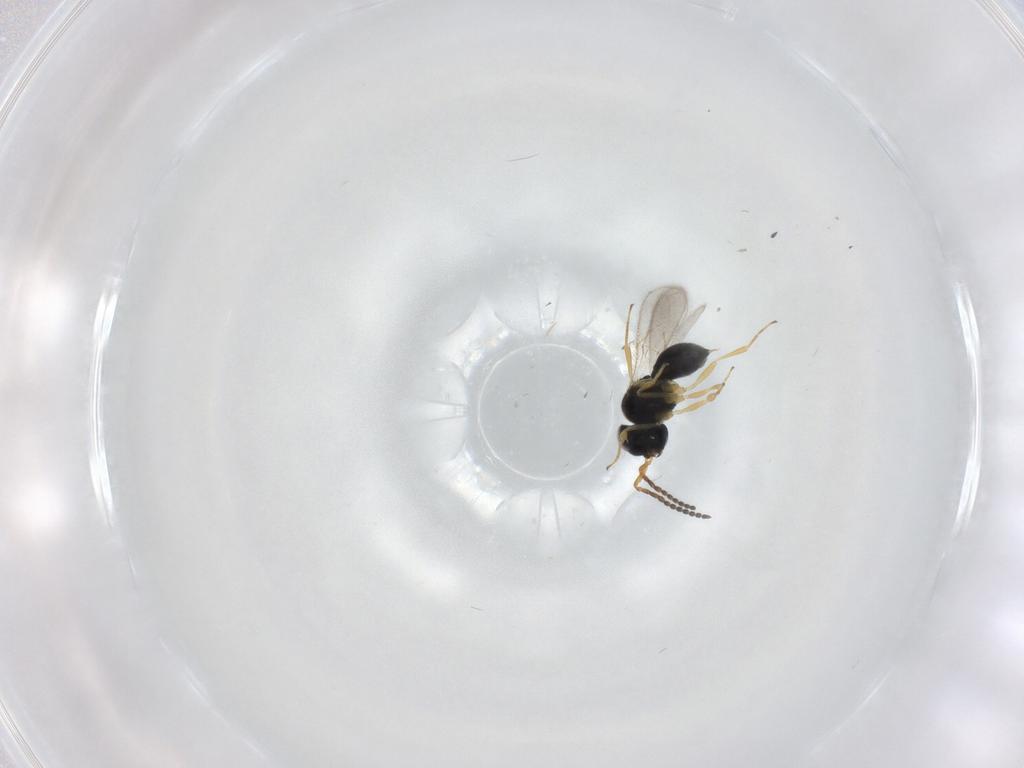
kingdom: Animalia
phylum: Arthropoda
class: Insecta
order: Hymenoptera
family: Scelionidae
